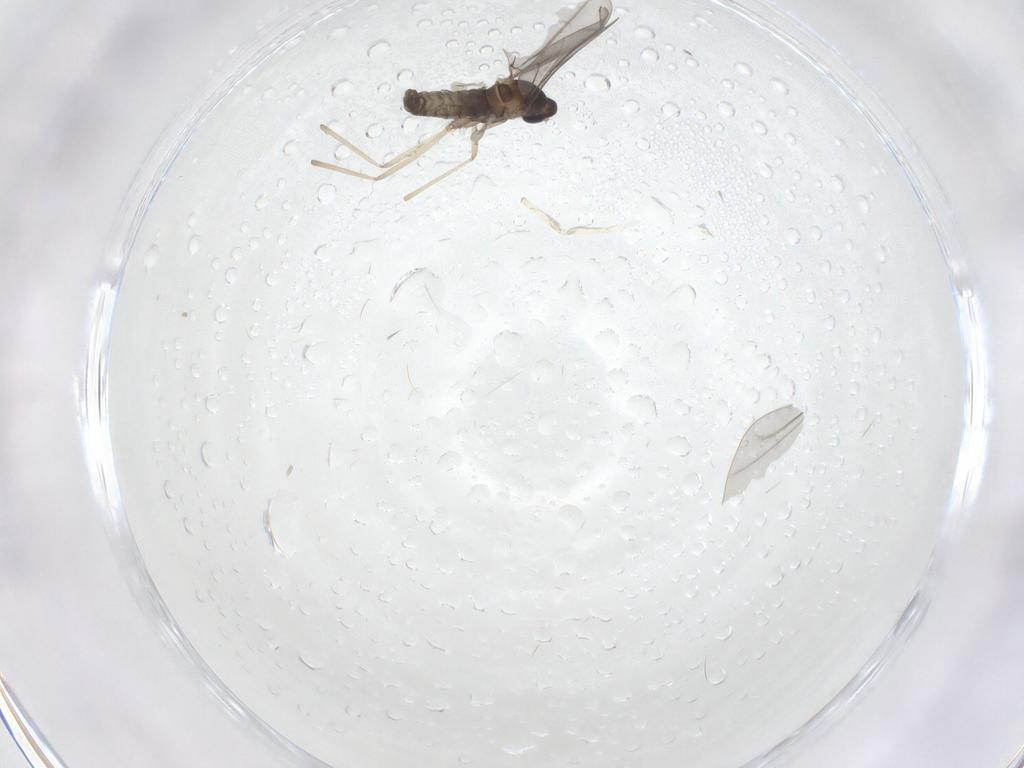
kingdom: Animalia
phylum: Arthropoda
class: Insecta
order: Diptera
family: Cecidomyiidae
